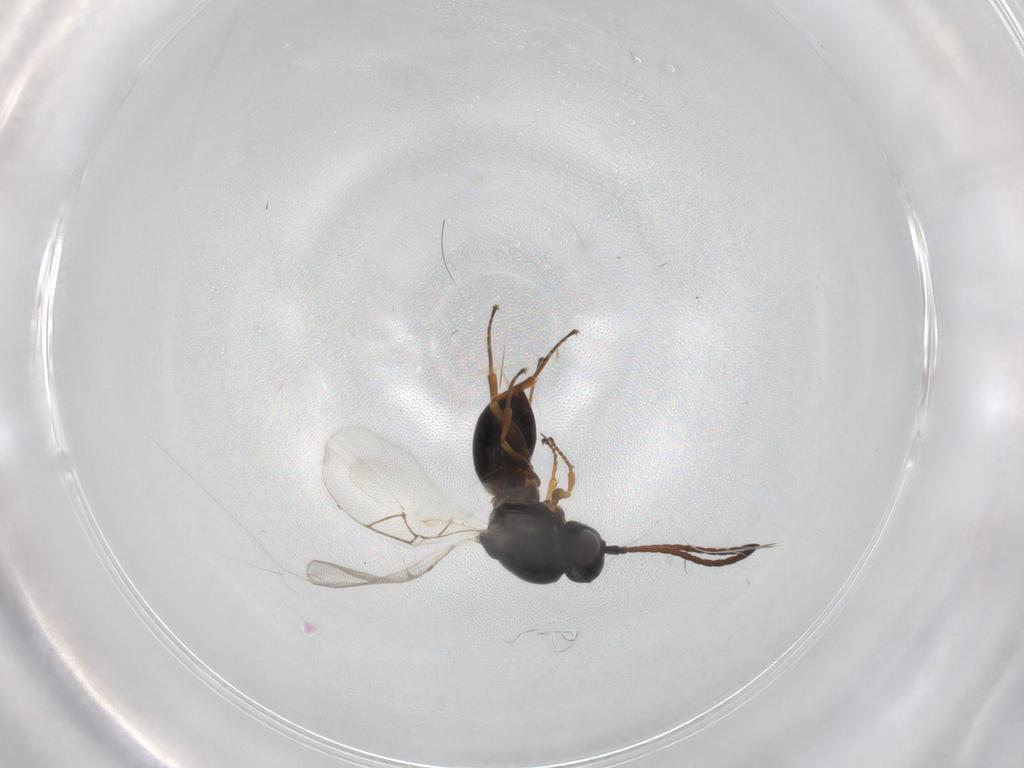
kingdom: Animalia
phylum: Arthropoda
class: Insecta
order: Hymenoptera
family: Figitidae
